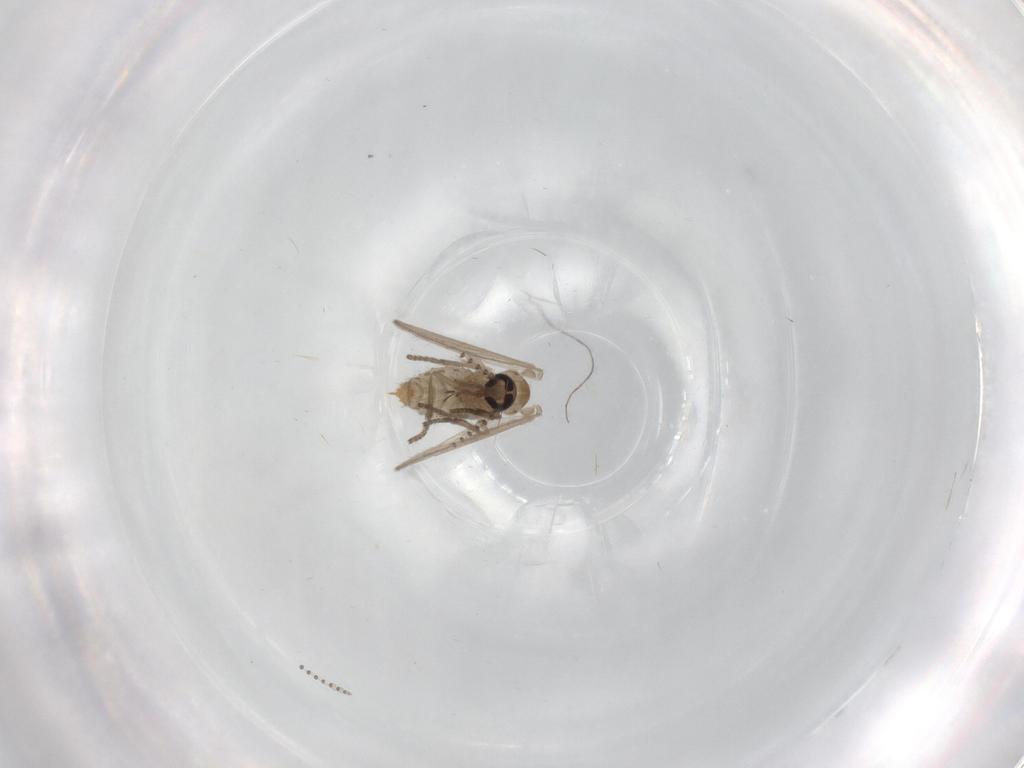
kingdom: Animalia
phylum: Arthropoda
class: Insecta
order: Diptera
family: Psychodidae
